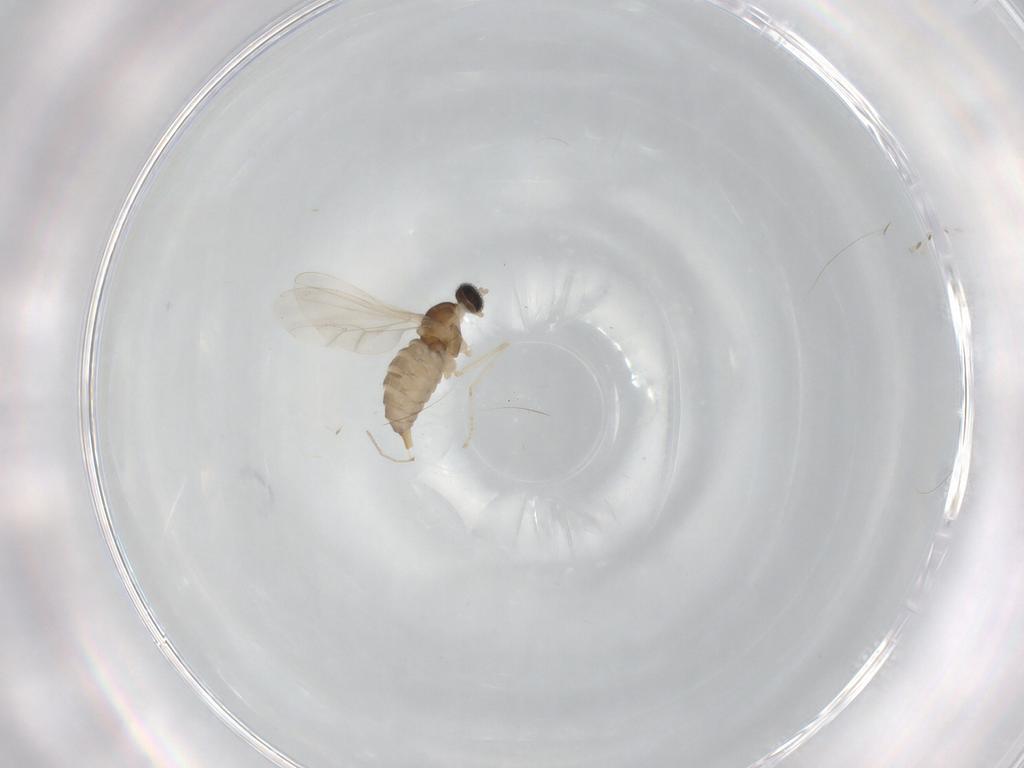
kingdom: Animalia
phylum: Arthropoda
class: Insecta
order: Diptera
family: Cecidomyiidae
